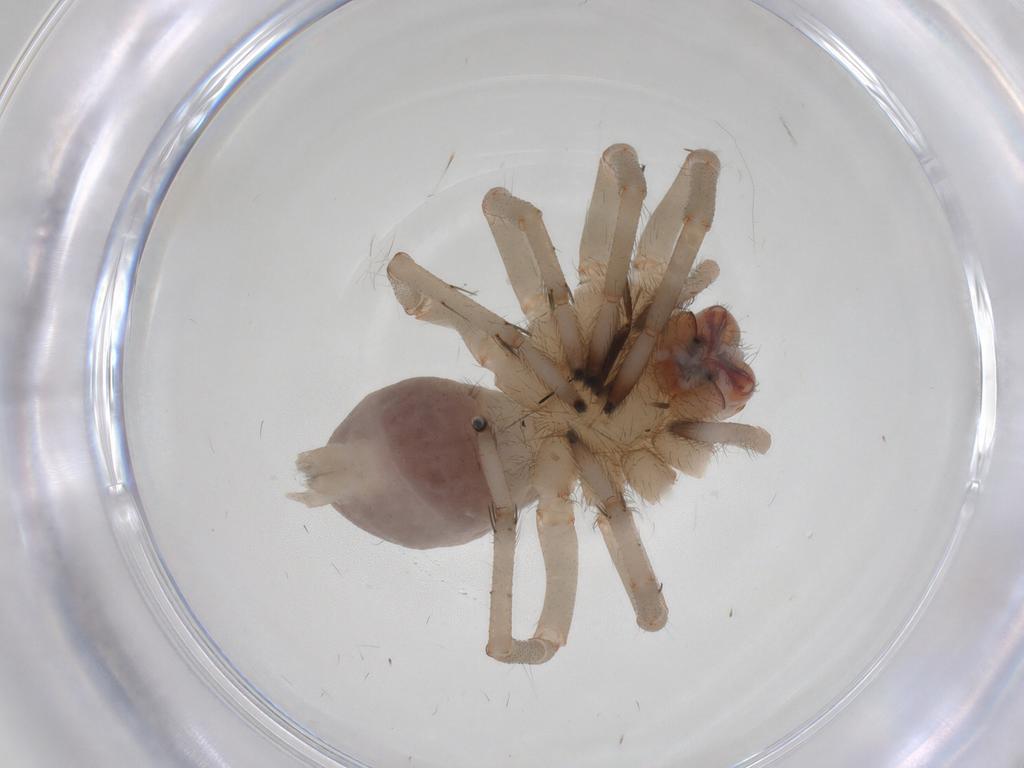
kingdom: Animalia
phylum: Arthropoda
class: Arachnida
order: Araneae
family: Cheiracanthiidae
